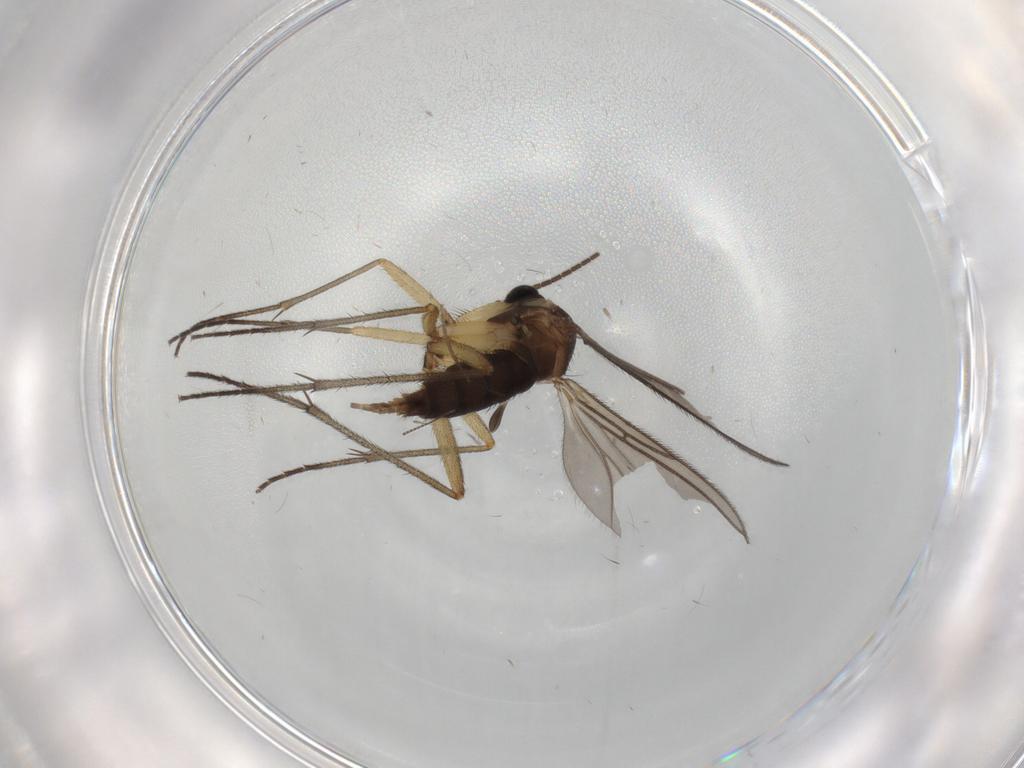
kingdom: Animalia
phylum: Arthropoda
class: Insecta
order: Diptera
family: Sciaridae
